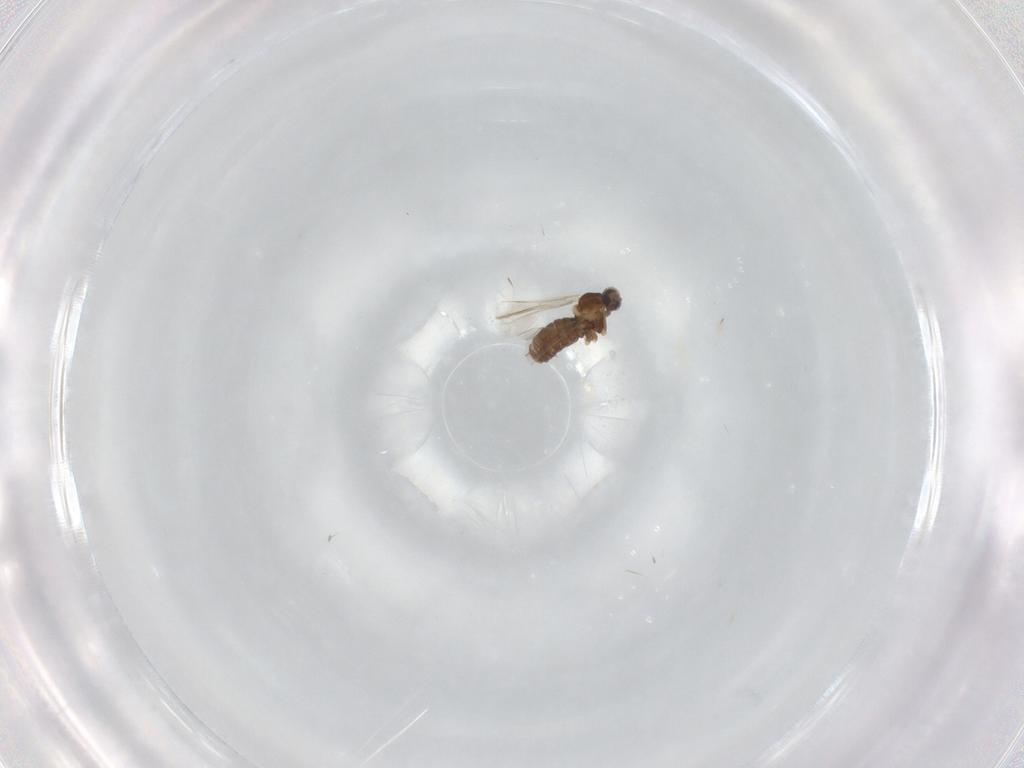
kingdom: Animalia
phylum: Arthropoda
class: Insecta
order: Diptera
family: Cecidomyiidae
